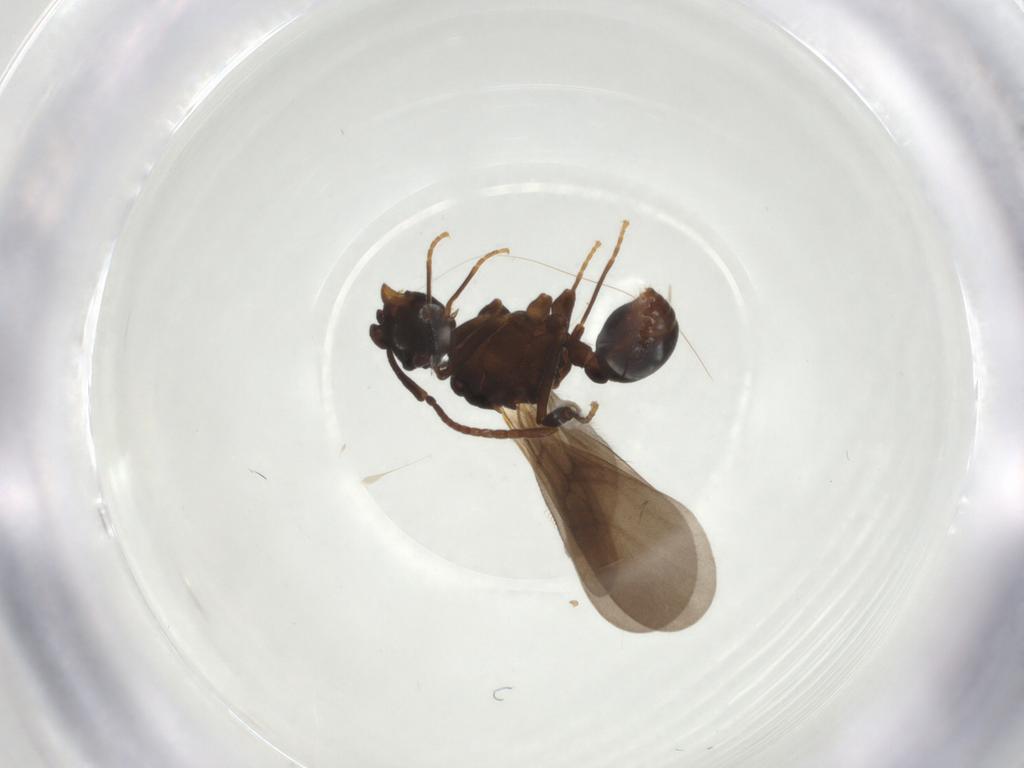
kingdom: Animalia
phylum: Arthropoda
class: Insecta
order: Hymenoptera
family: Formicidae
